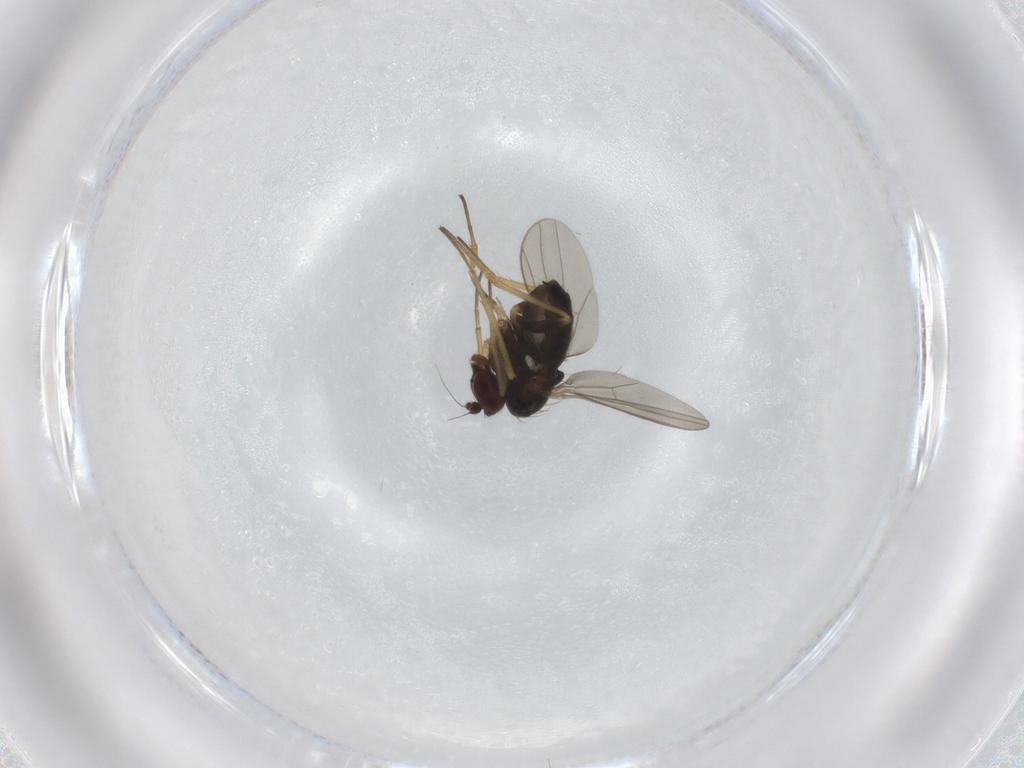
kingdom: Animalia
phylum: Arthropoda
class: Insecta
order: Diptera
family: Dolichopodidae
